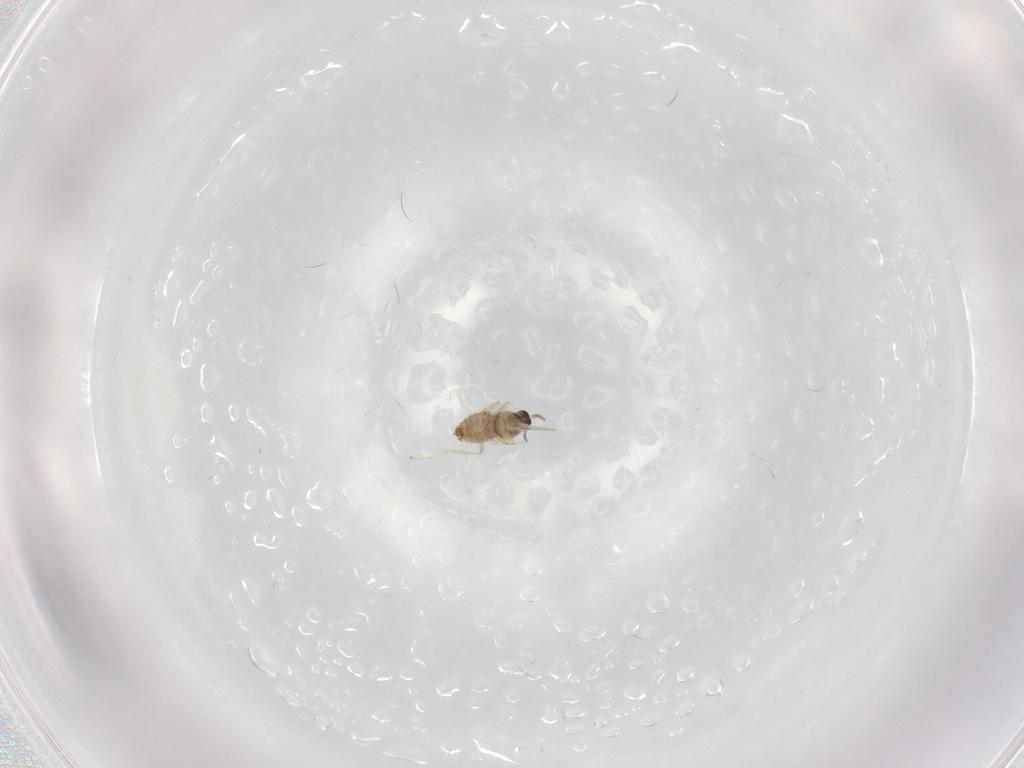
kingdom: Animalia
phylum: Arthropoda
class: Insecta
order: Diptera
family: Cecidomyiidae
